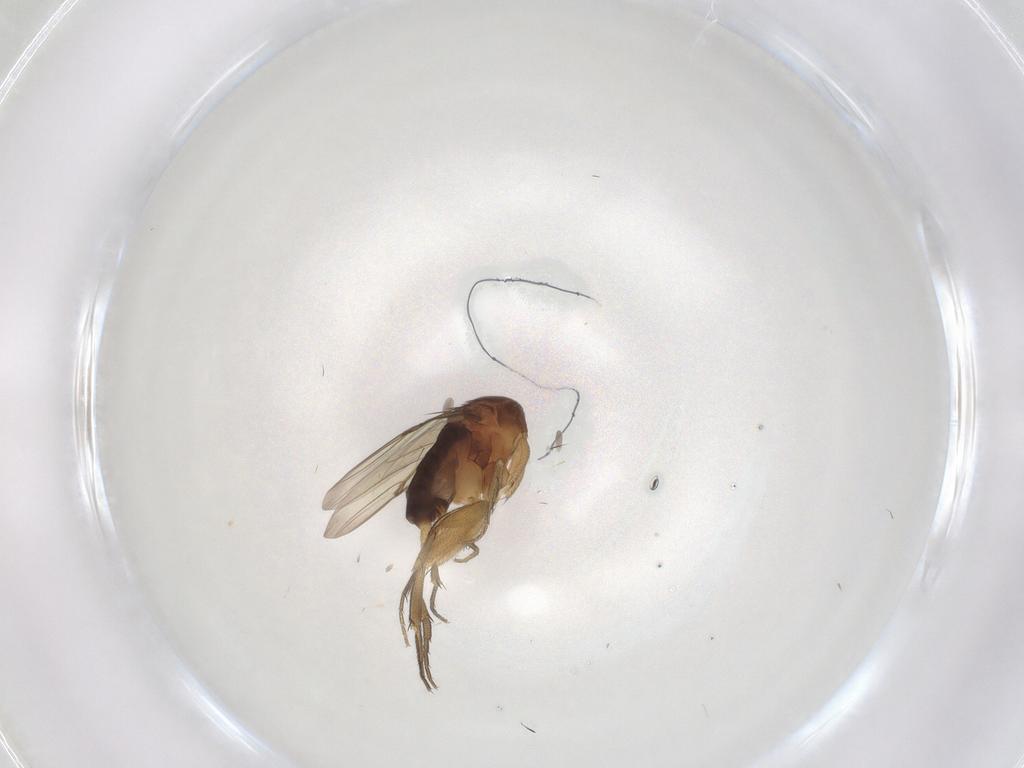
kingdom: Animalia
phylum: Arthropoda
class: Insecta
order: Diptera
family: Phoridae
